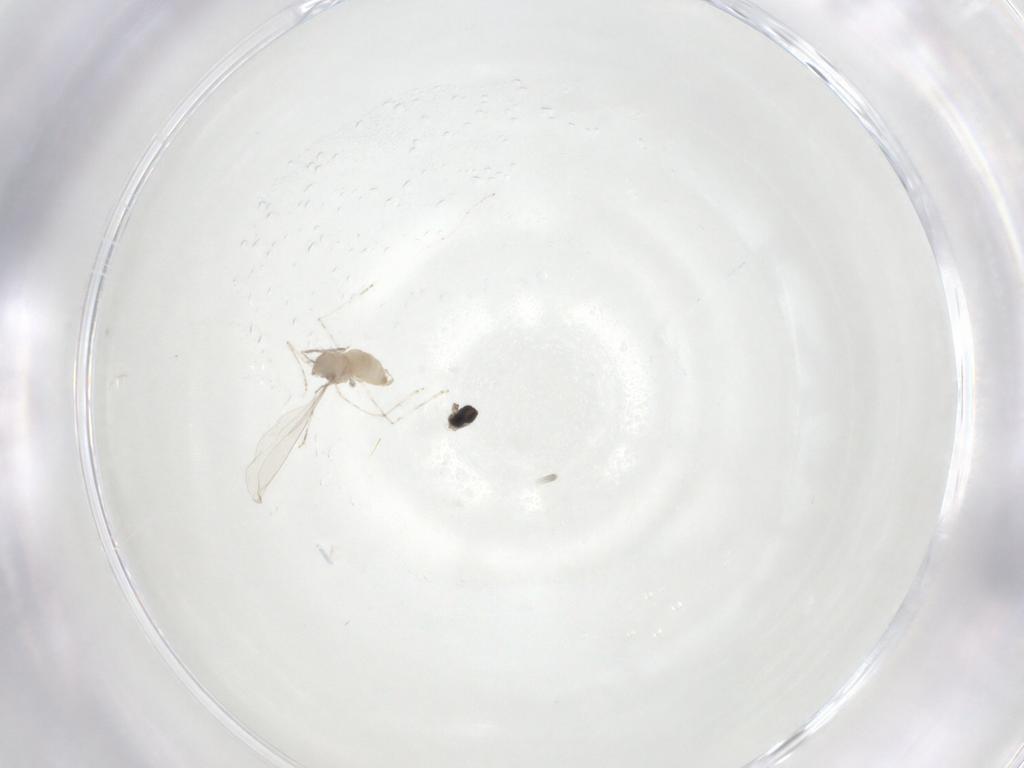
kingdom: Animalia
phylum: Arthropoda
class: Insecta
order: Diptera
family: Cecidomyiidae
